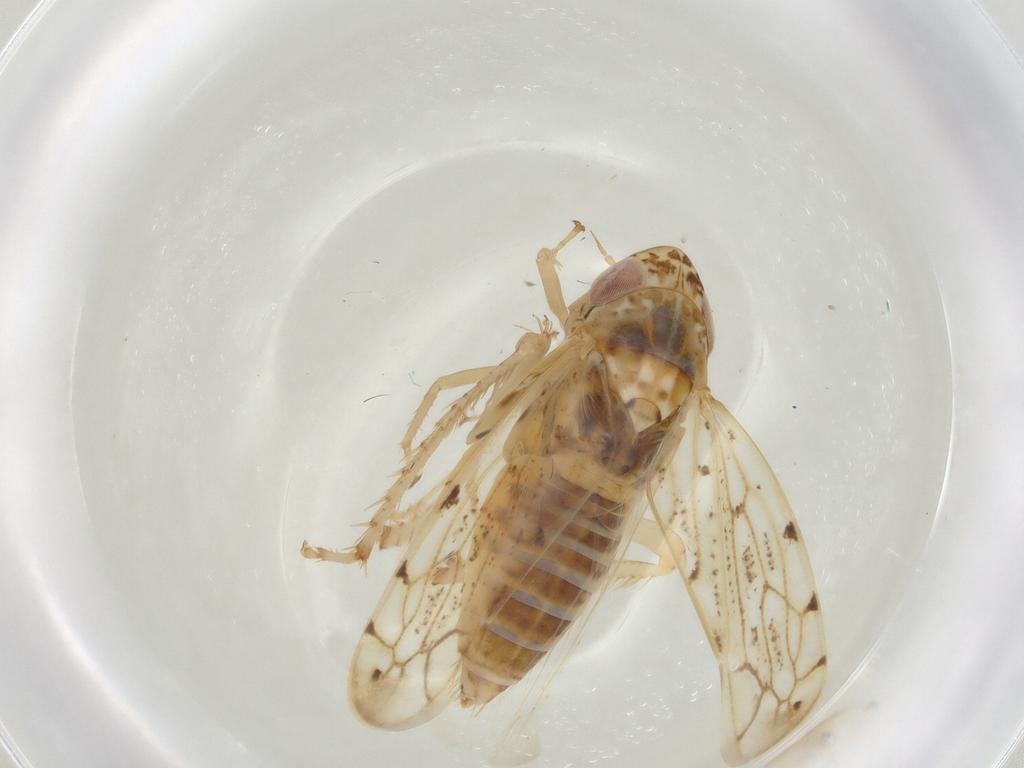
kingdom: Animalia
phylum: Arthropoda
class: Insecta
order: Hemiptera
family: Cicadellidae
